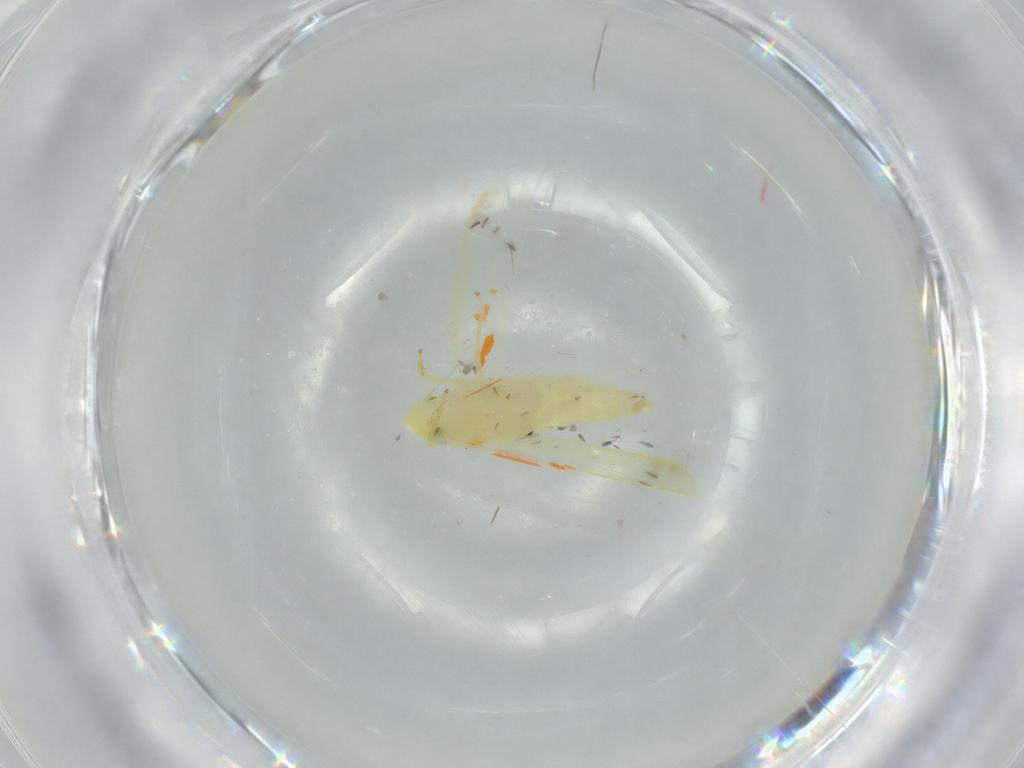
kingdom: Animalia
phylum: Arthropoda
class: Insecta
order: Hemiptera
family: Cicadellidae
